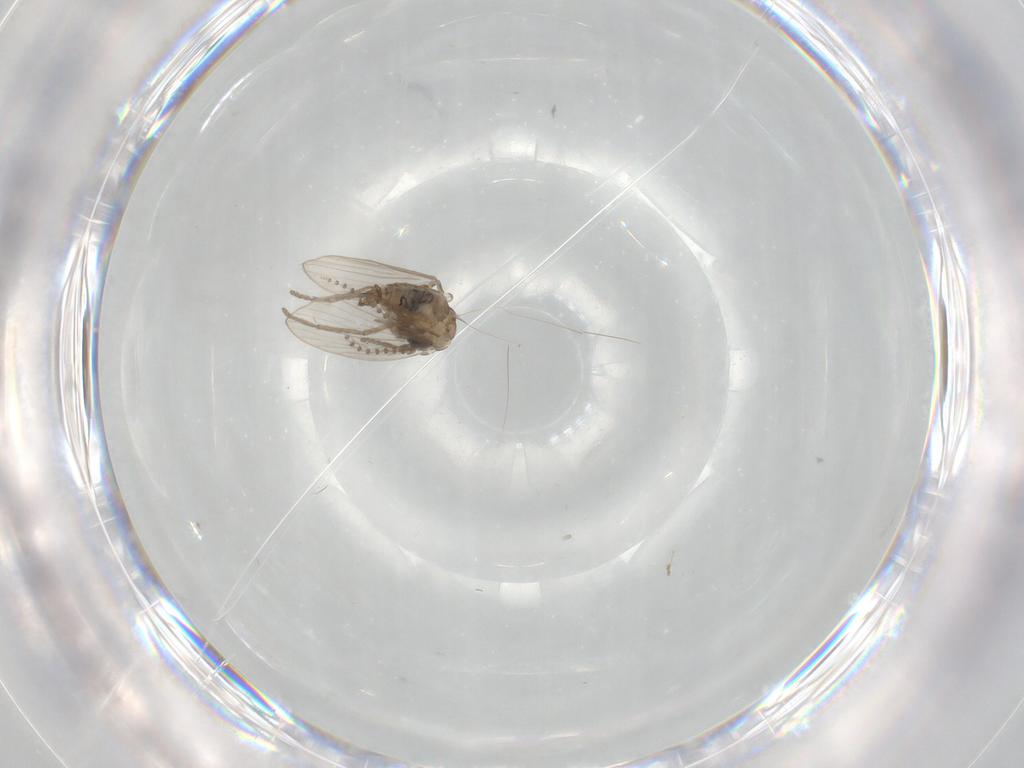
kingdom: Animalia
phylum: Arthropoda
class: Insecta
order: Diptera
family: Psychodidae
